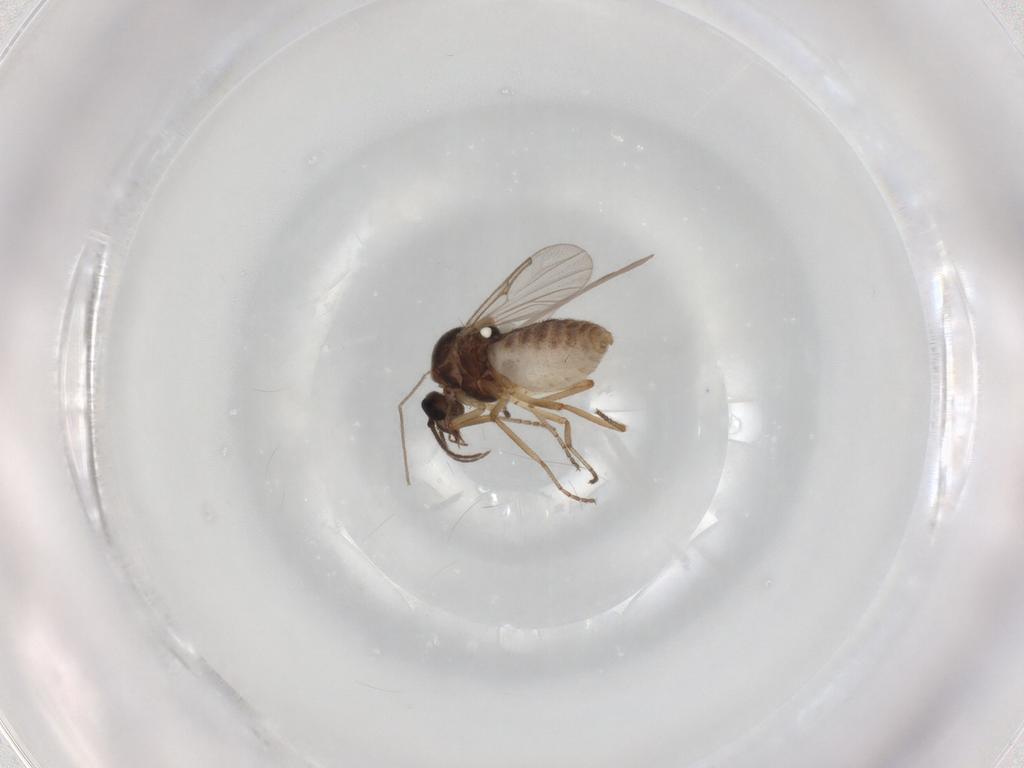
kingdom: Animalia
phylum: Arthropoda
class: Insecta
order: Diptera
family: Ceratopogonidae
